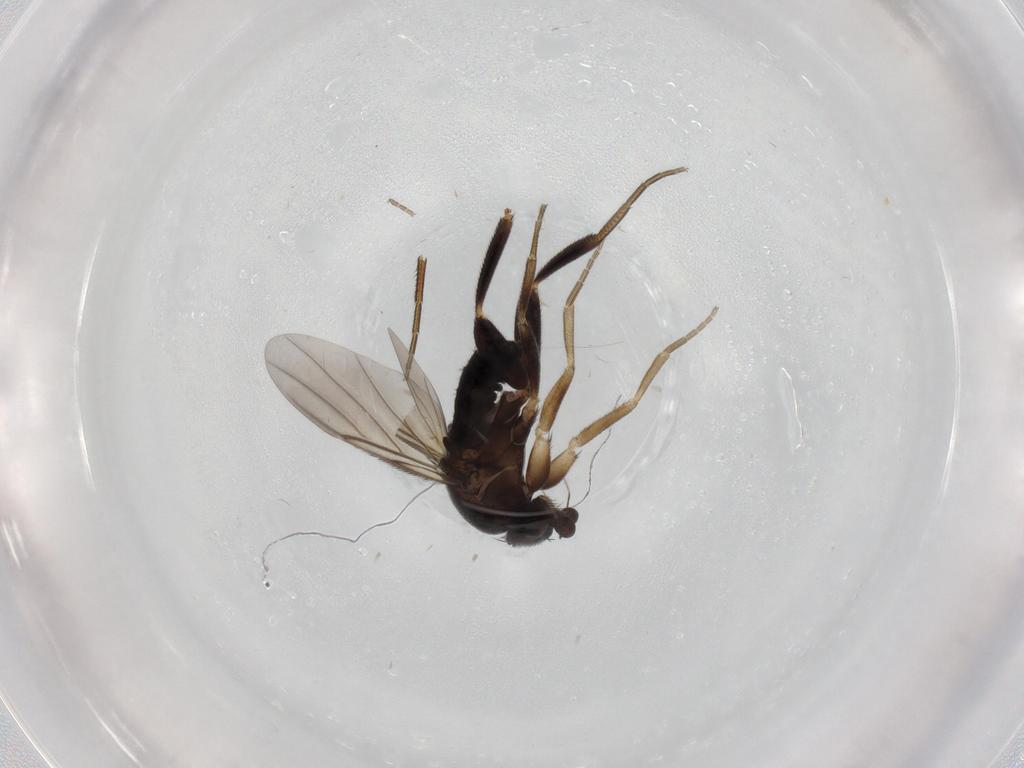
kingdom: Animalia
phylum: Arthropoda
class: Insecta
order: Diptera
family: Phoridae
